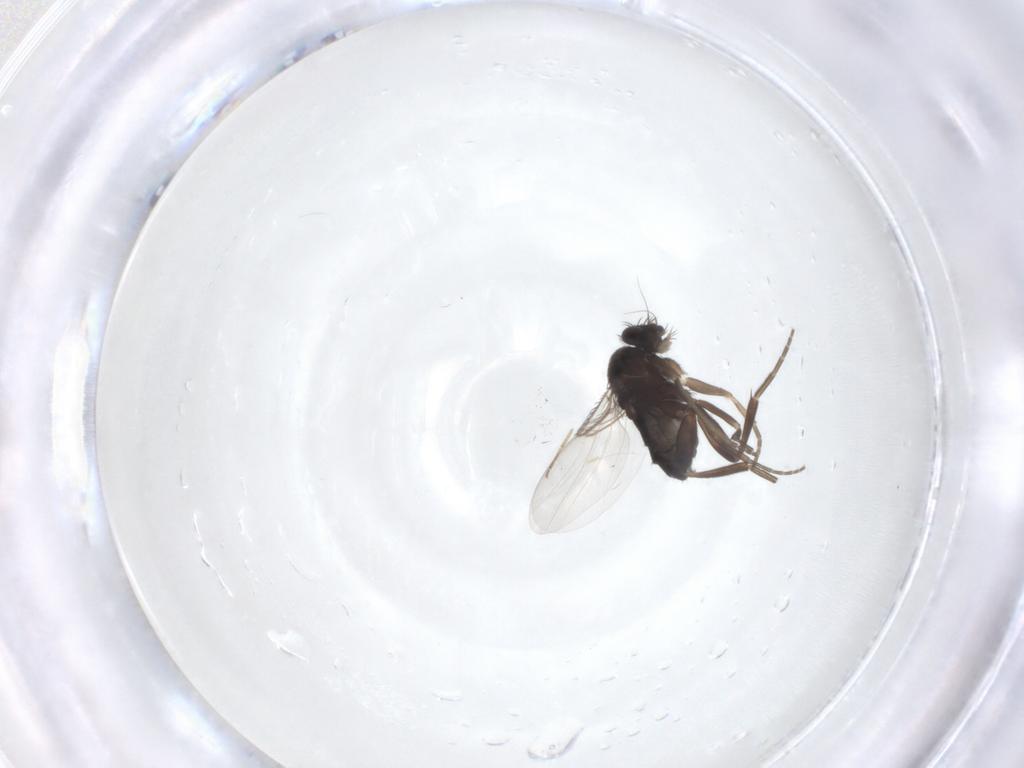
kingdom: Animalia
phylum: Arthropoda
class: Insecta
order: Diptera
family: Phoridae
